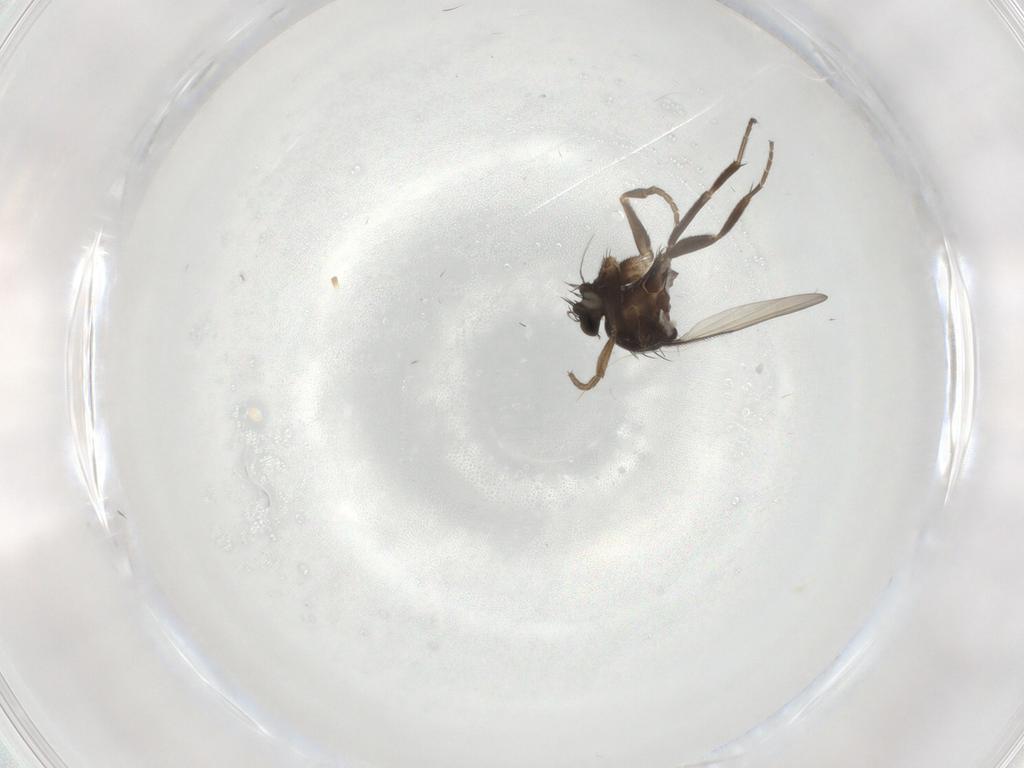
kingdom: Animalia
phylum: Arthropoda
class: Insecta
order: Diptera
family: Phoridae
